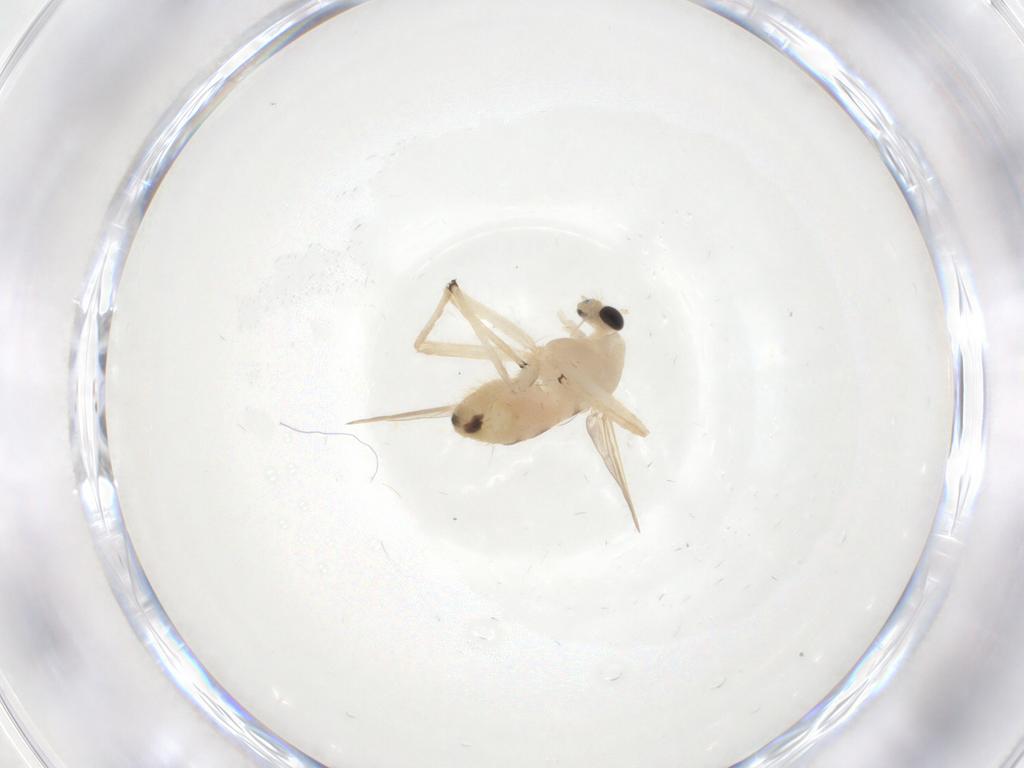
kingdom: Animalia
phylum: Arthropoda
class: Insecta
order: Diptera
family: Chironomidae
